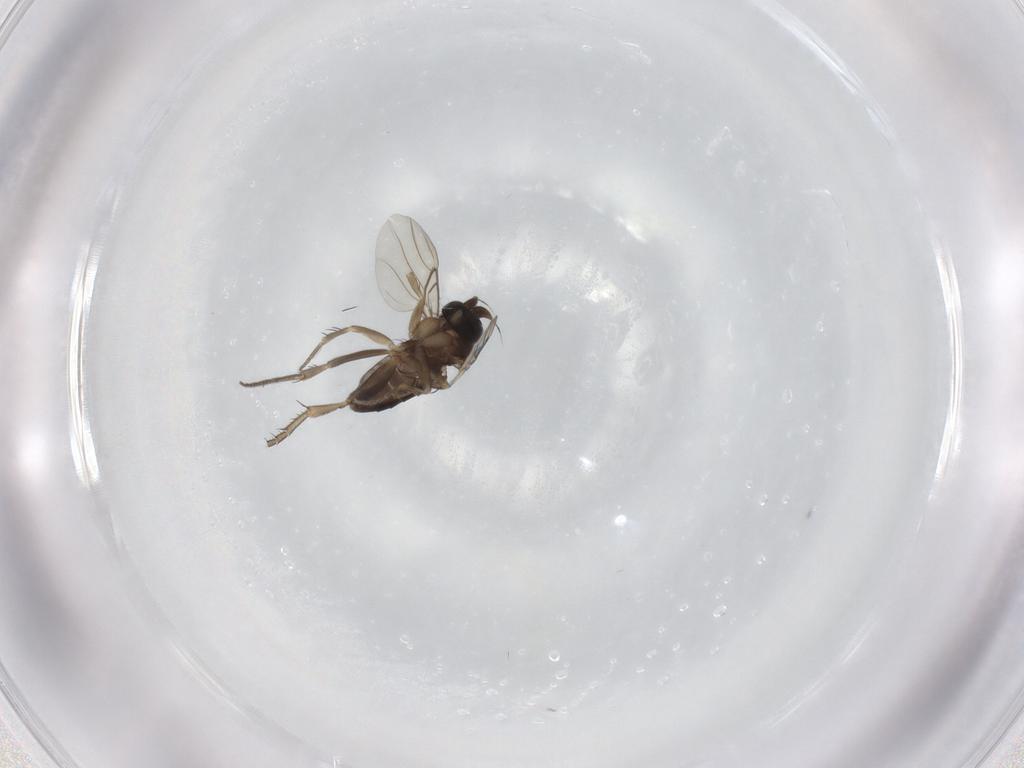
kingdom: Animalia
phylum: Arthropoda
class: Insecta
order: Diptera
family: Phoridae
